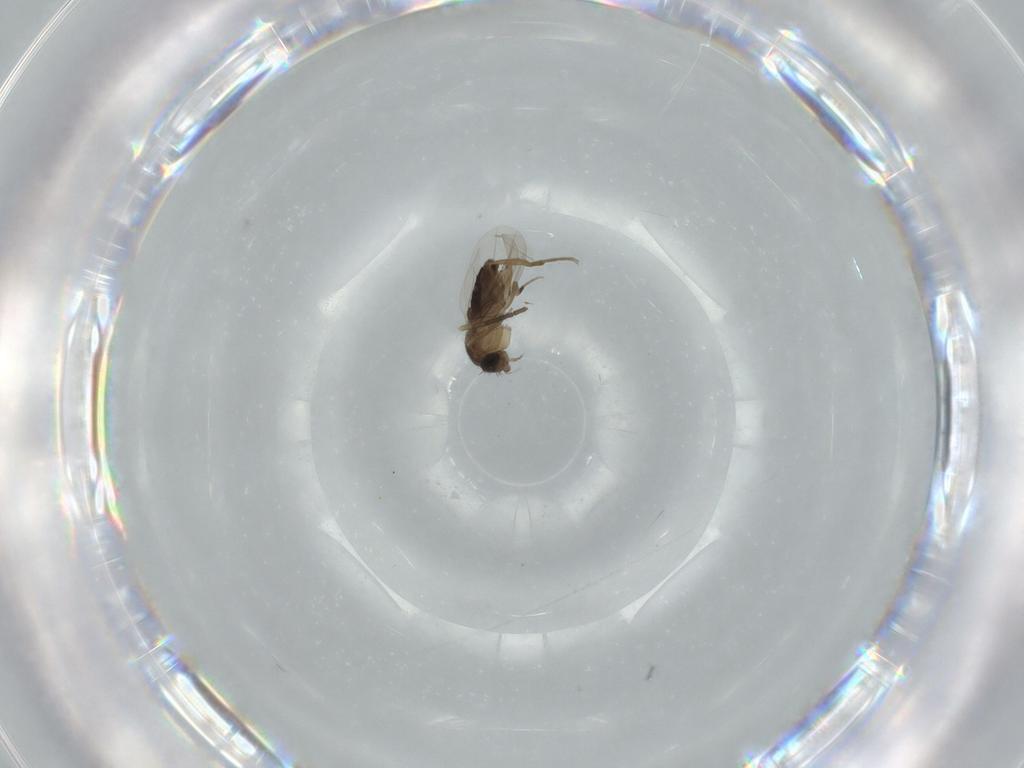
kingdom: Animalia
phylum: Arthropoda
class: Insecta
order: Diptera
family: Phoridae
